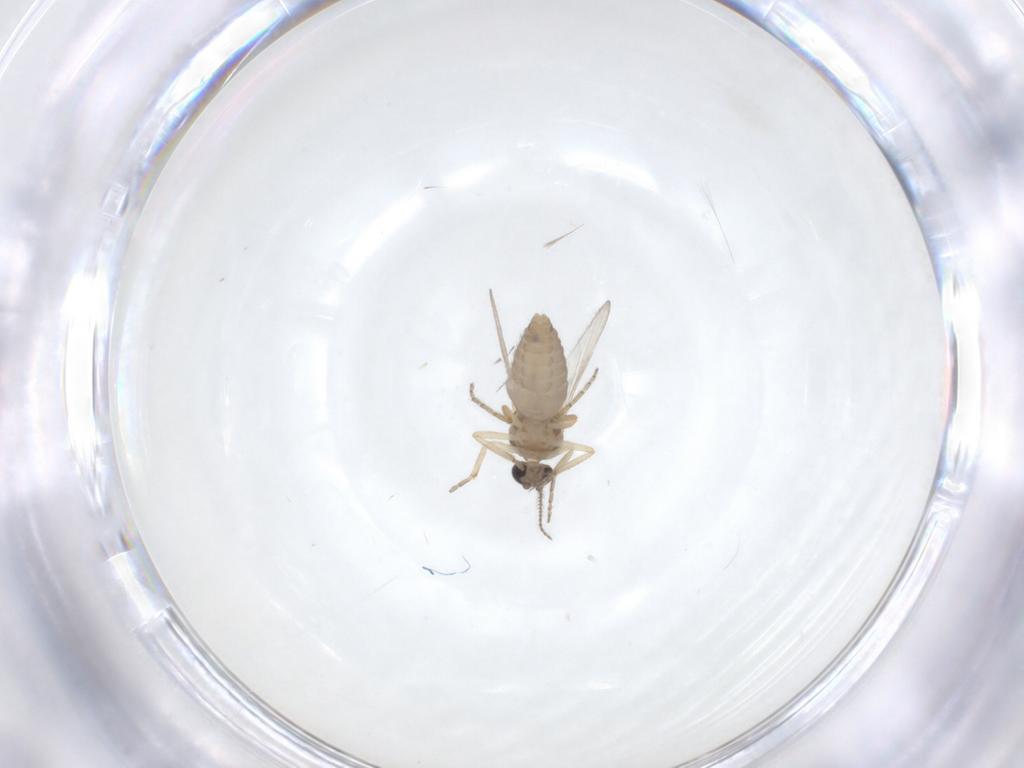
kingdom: Animalia
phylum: Arthropoda
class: Insecta
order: Diptera
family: Ceratopogonidae
